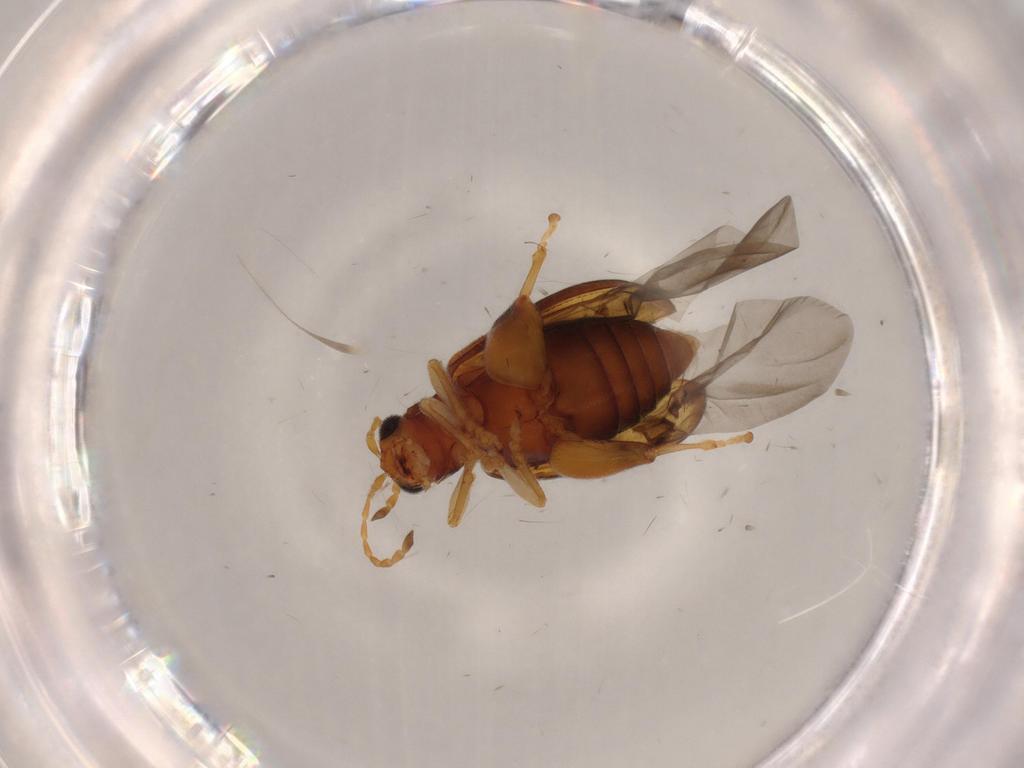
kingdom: Animalia
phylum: Arthropoda
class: Insecta
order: Coleoptera
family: Chrysomelidae
